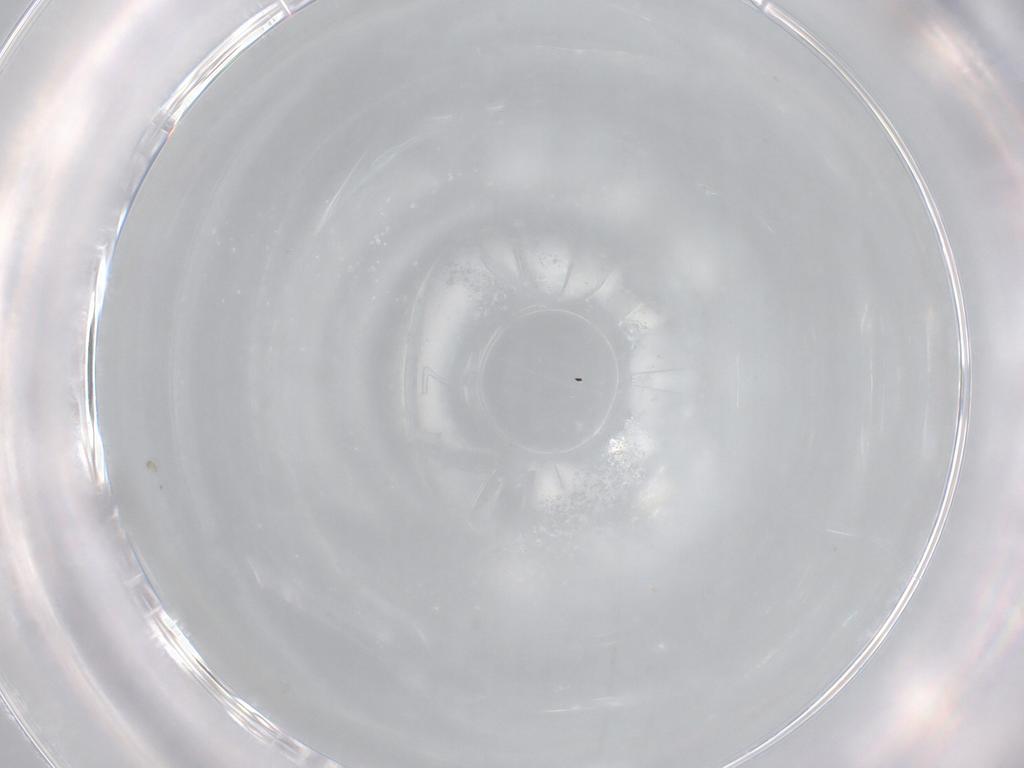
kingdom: Animalia
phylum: Arthropoda
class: Collembola
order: Entomobryomorpha
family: Entomobryidae
